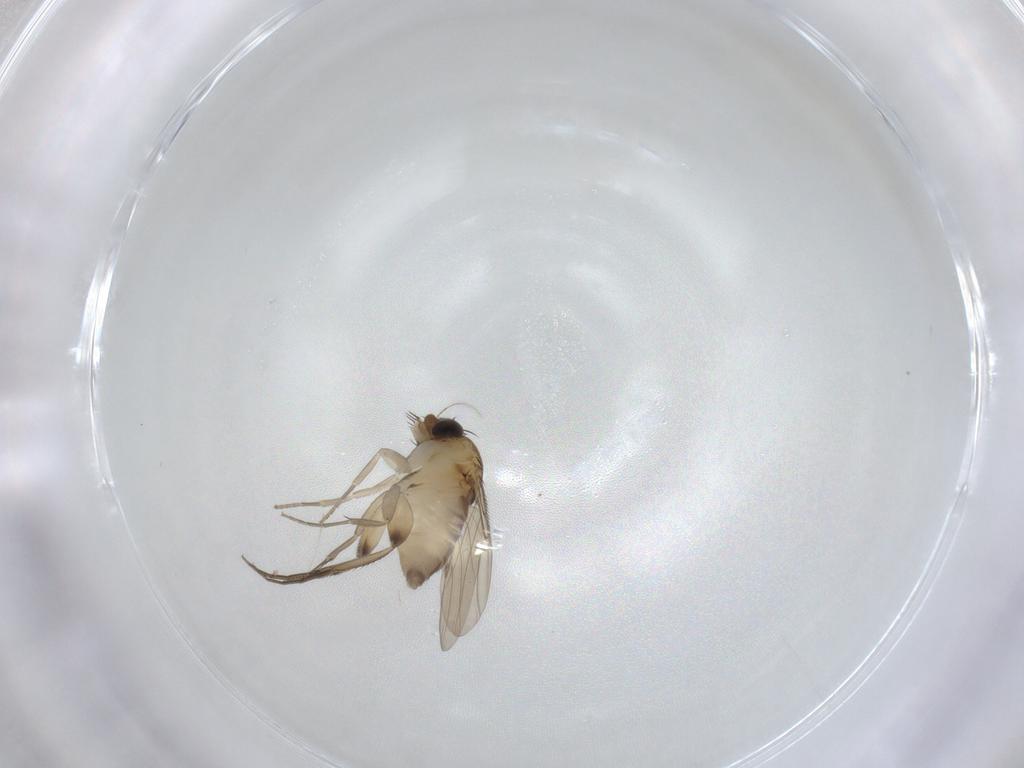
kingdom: Animalia
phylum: Arthropoda
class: Insecta
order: Diptera
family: Phoridae
